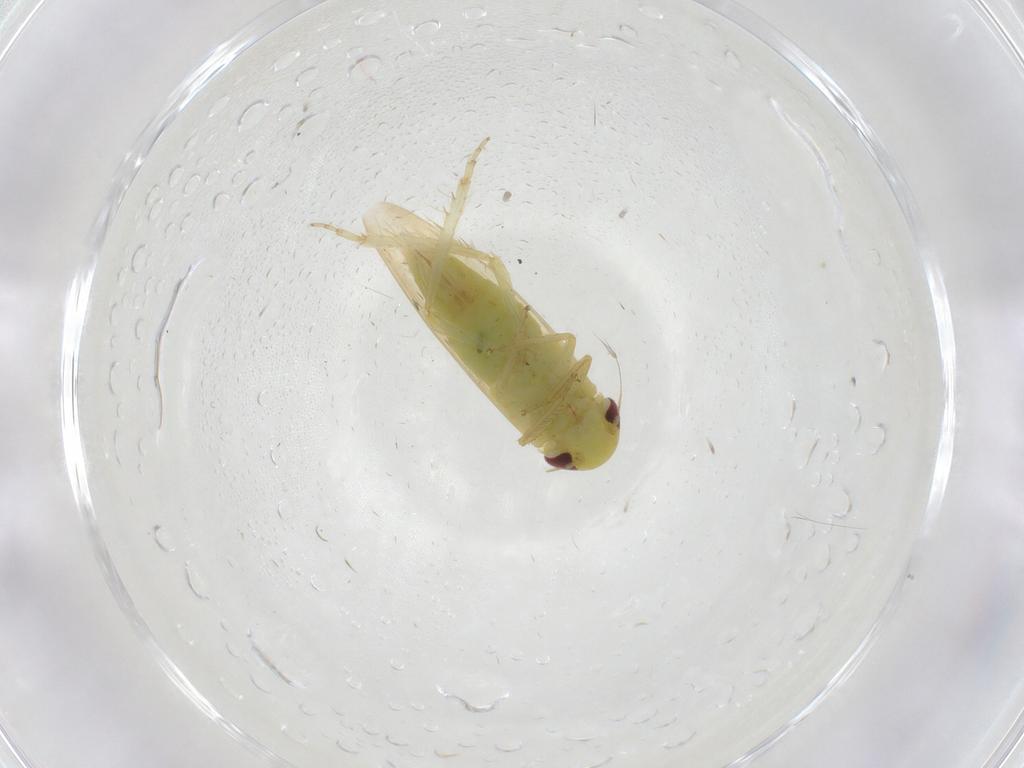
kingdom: Animalia
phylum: Arthropoda
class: Insecta
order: Hemiptera
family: Cicadellidae
